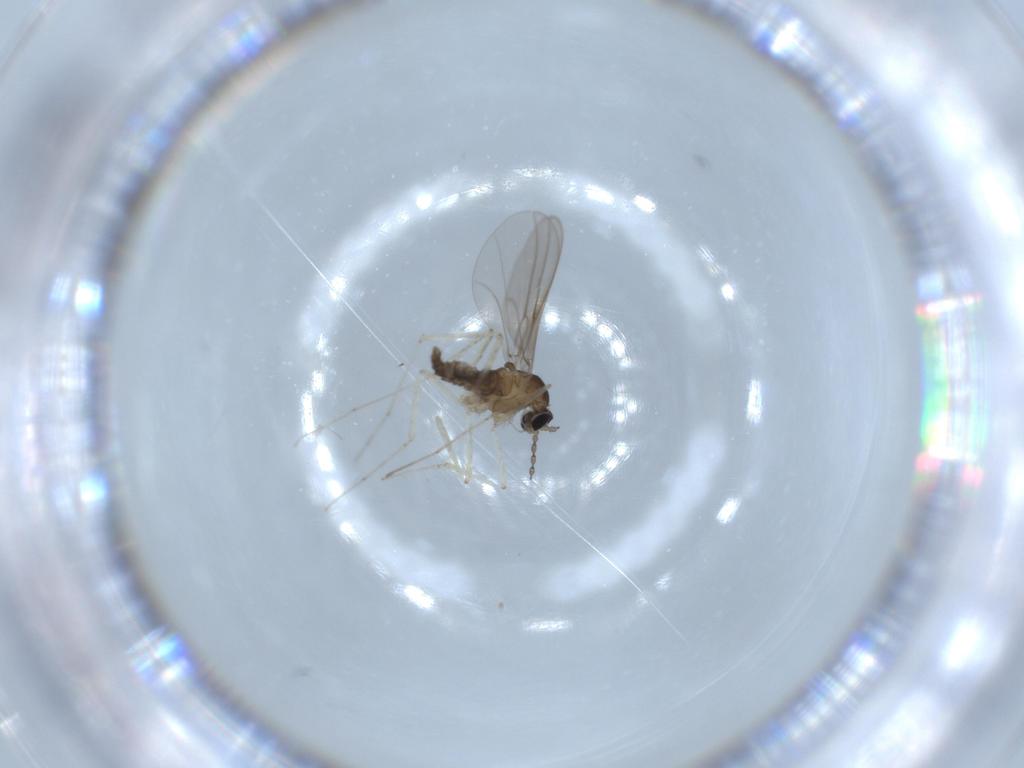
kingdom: Animalia
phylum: Arthropoda
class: Insecta
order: Diptera
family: Cecidomyiidae
